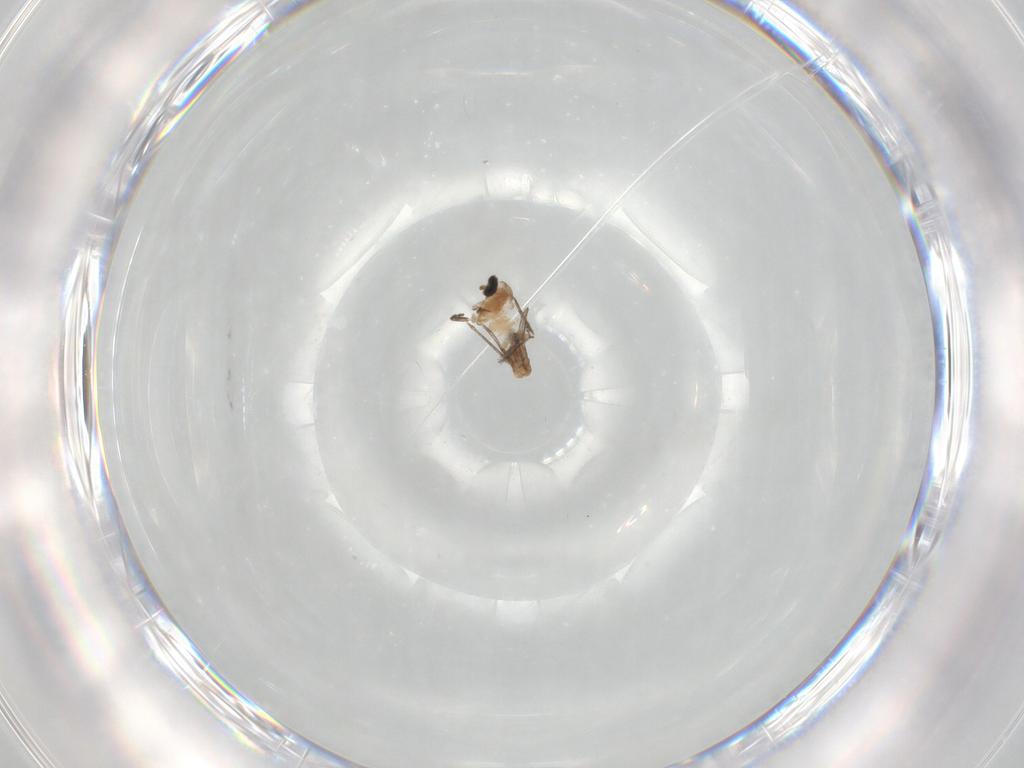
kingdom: Animalia
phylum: Arthropoda
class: Insecta
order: Diptera
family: Cecidomyiidae
